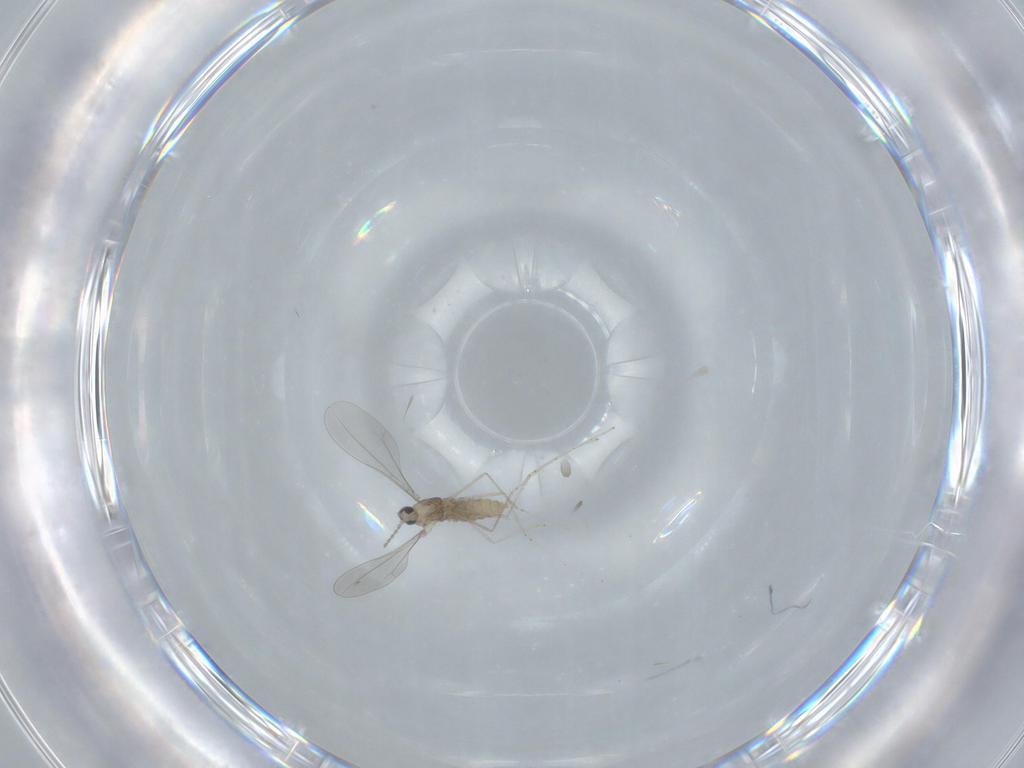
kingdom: Animalia
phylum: Arthropoda
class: Insecta
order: Diptera
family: Cecidomyiidae
